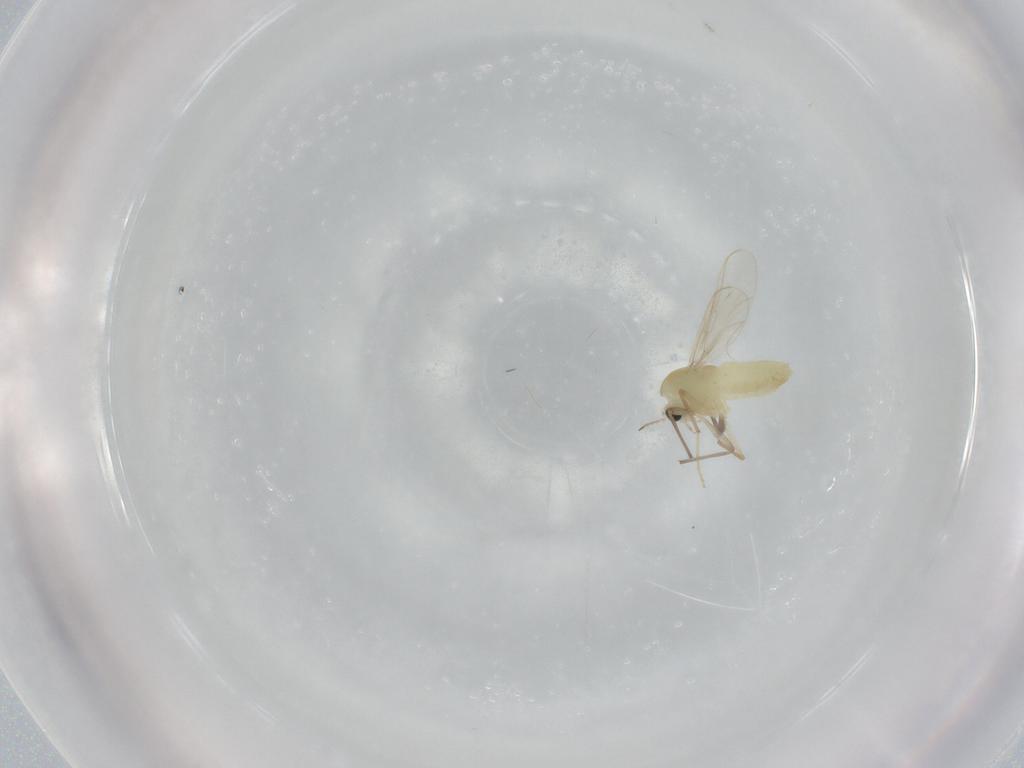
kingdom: Animalia
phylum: Arthropoda
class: Insecta
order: Diptera
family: Chironomidae
